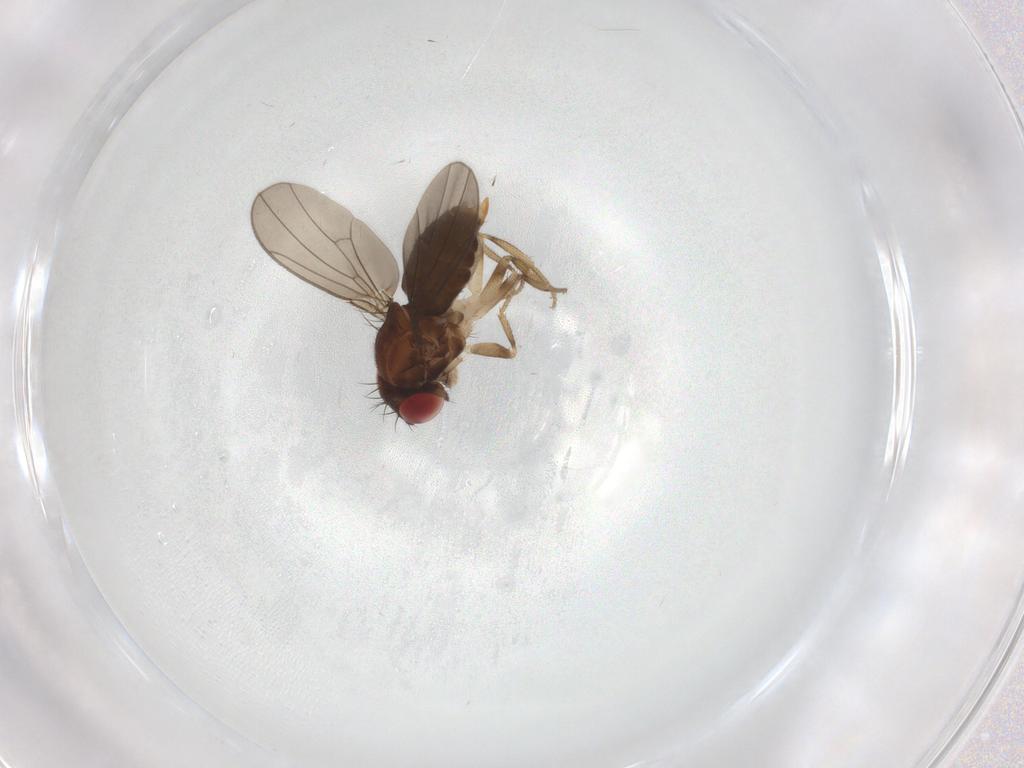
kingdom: Animalia
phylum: Arthropoda
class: Insecta
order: Diptera
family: Drosophilidae
